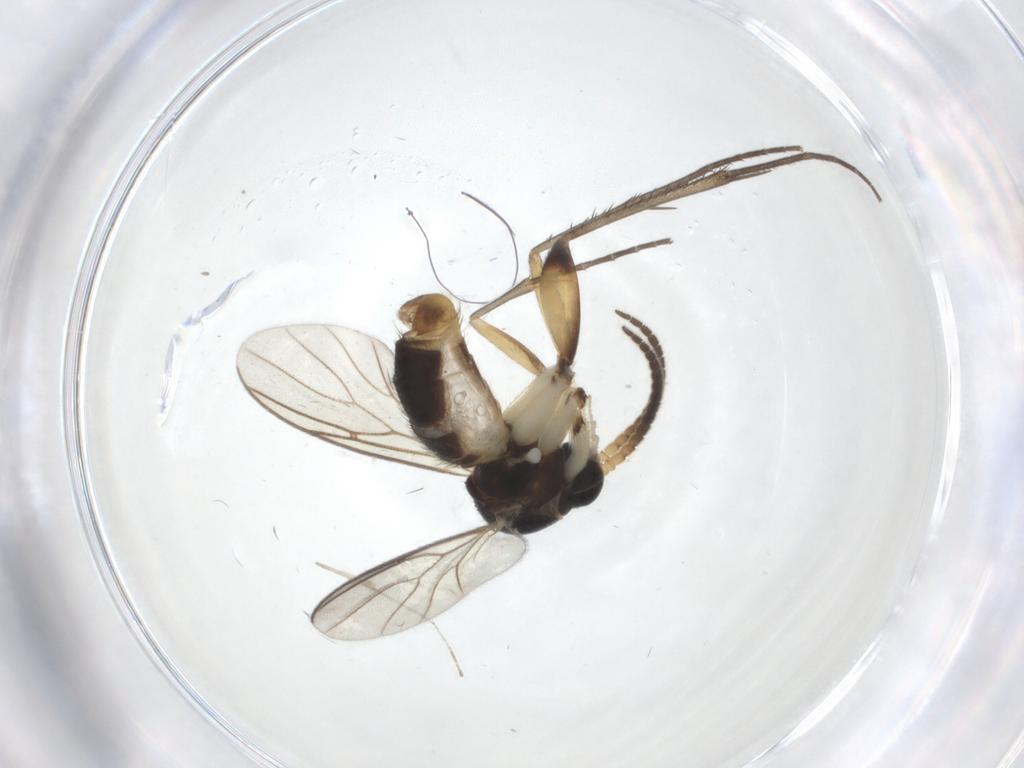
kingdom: Animalia
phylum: Arthropoda
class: Insecta
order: Diptera
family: Mycetophilidae
